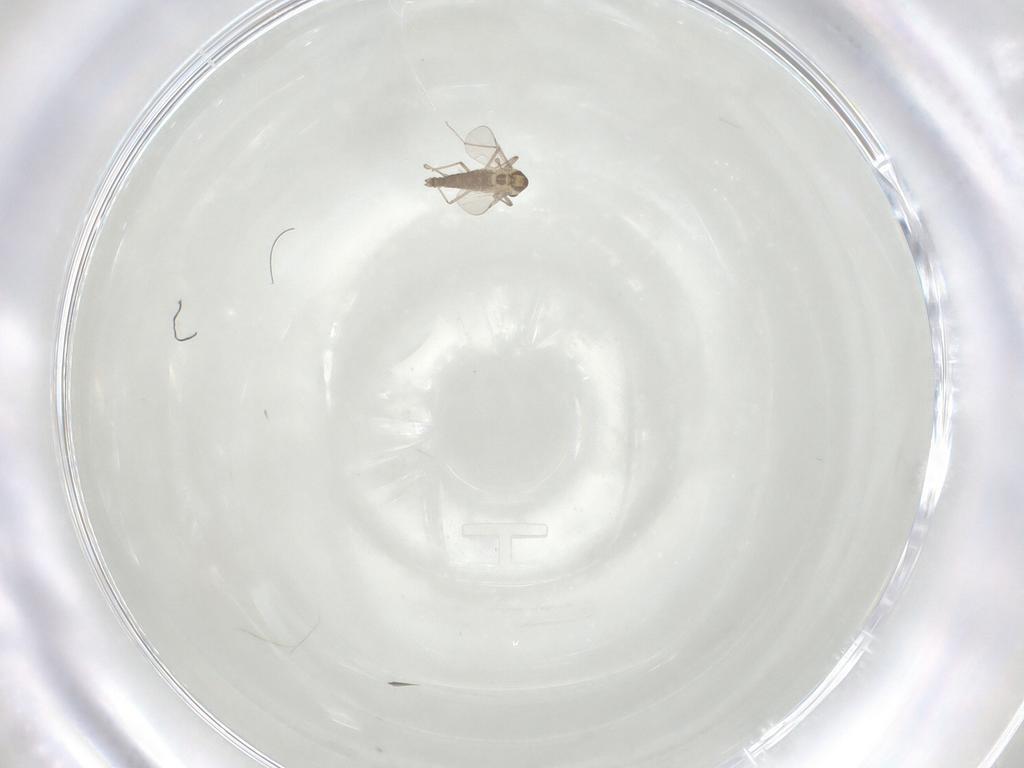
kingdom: Animalia
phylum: Arthropoda
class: Insecta
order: Diptera
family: Chironomidae
